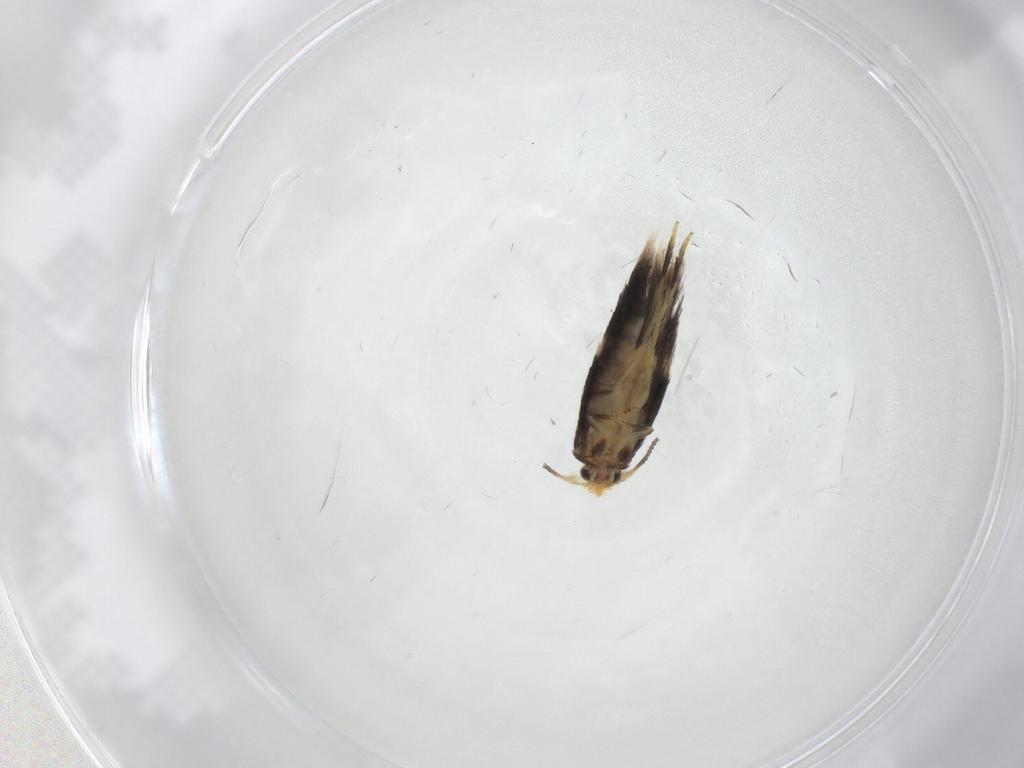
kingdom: Animalia
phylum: Arthropoda
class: Insecta
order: Lepidoptera
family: Nepticulidae
